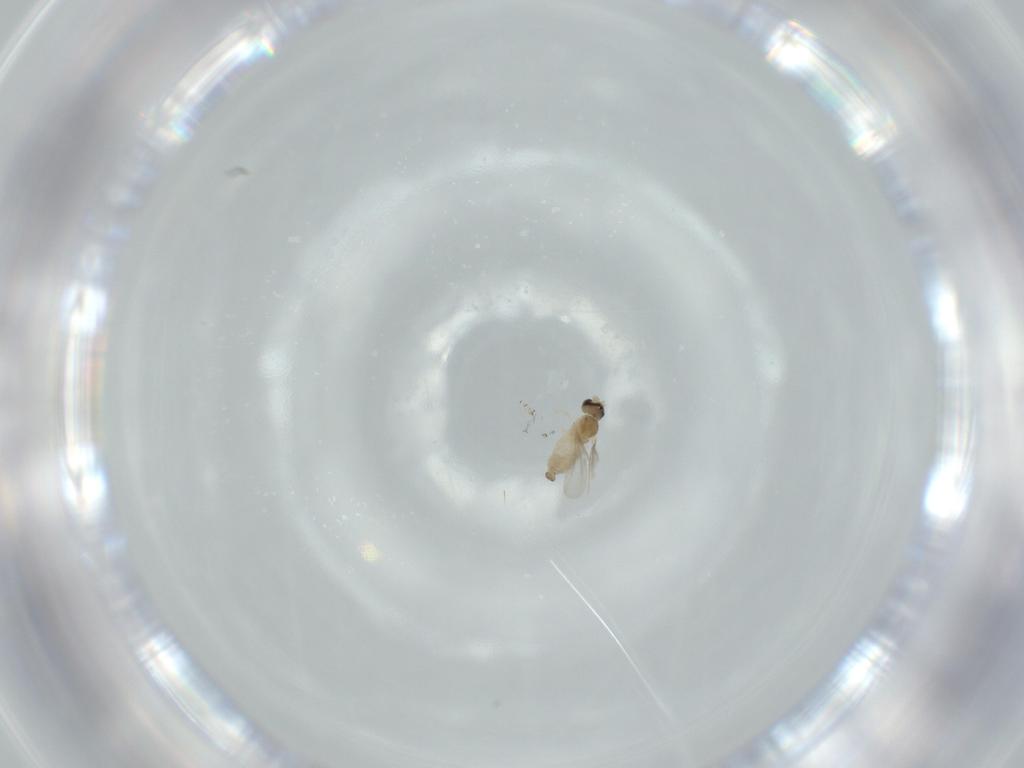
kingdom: Animalia
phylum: Arthropoda
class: Insecta
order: Diptera
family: Cecidomyiidae
